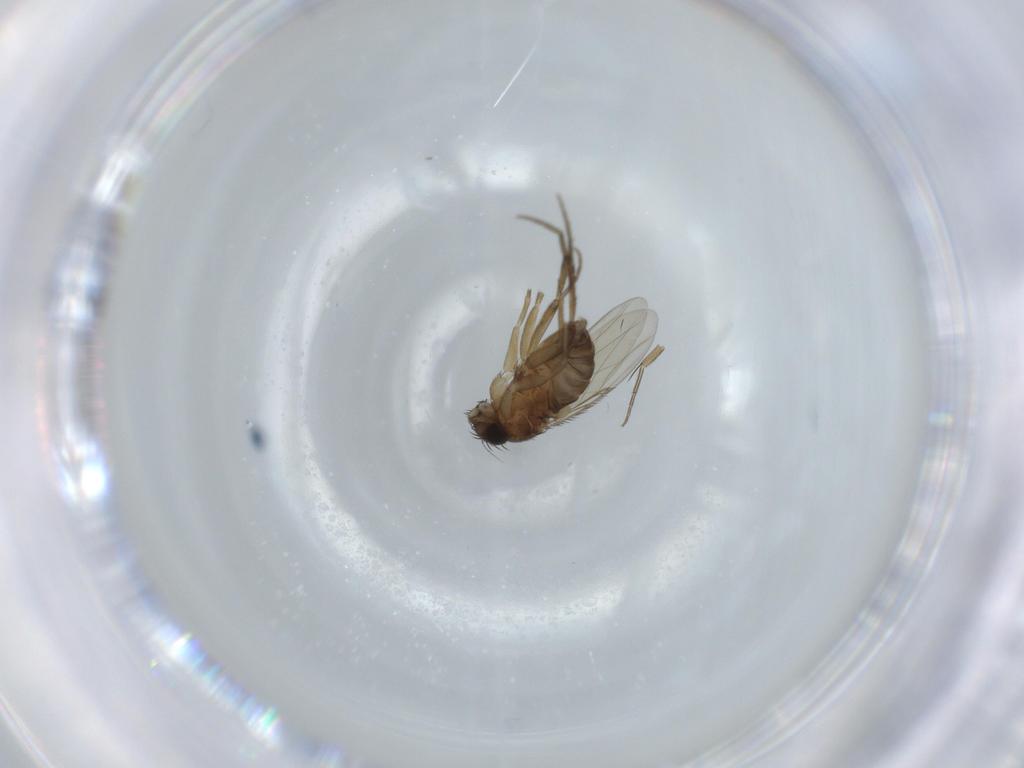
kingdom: Animalia
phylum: Arthropoda
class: Insecta
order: Diptera
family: Phoridae
